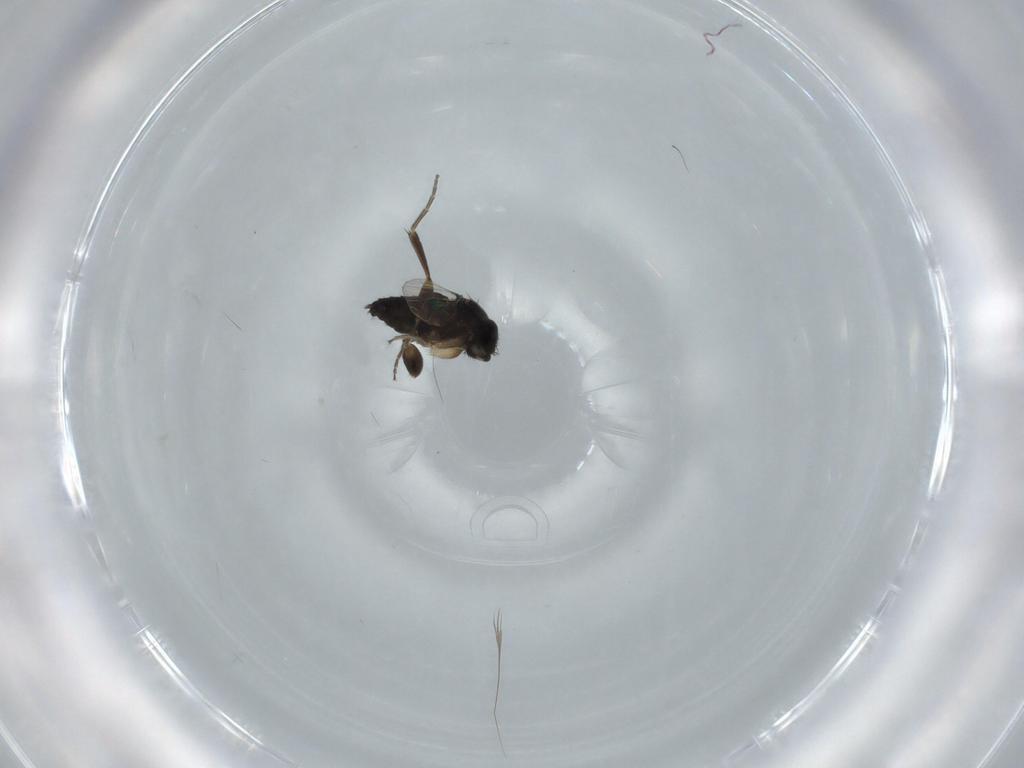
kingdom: Animalia
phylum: Arthropoda
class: Insecta
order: Diptera
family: Phoridae
